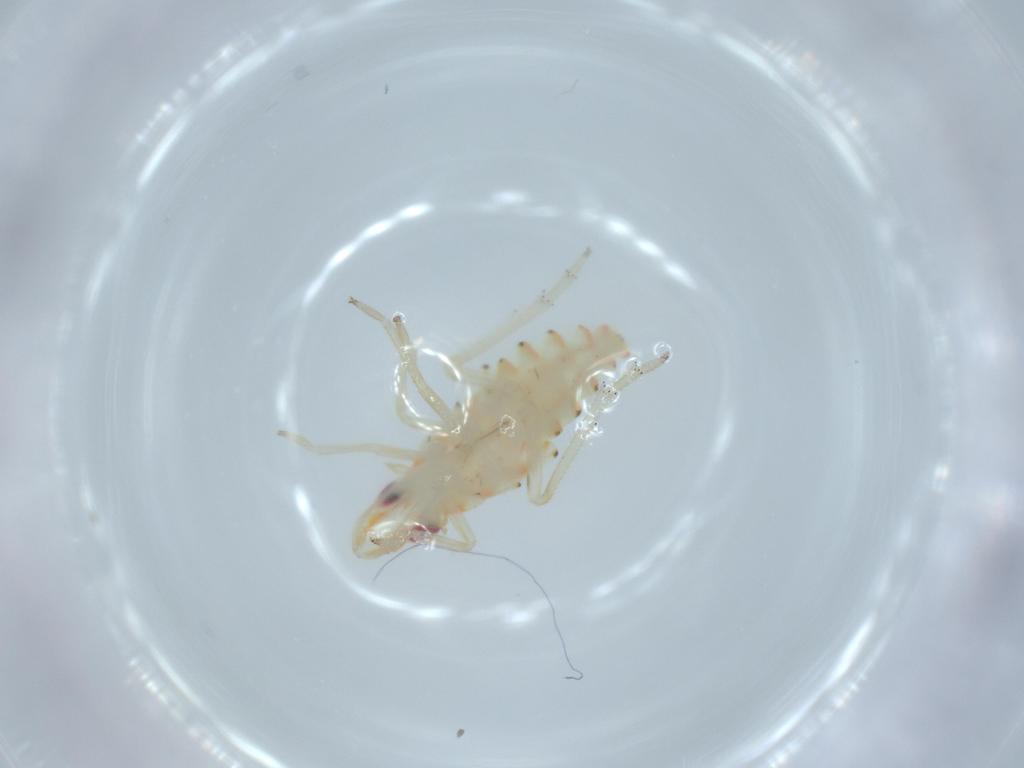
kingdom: Animalia
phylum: Arthropoda
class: Insecta
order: Hemiptera
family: Tropiduchidae
